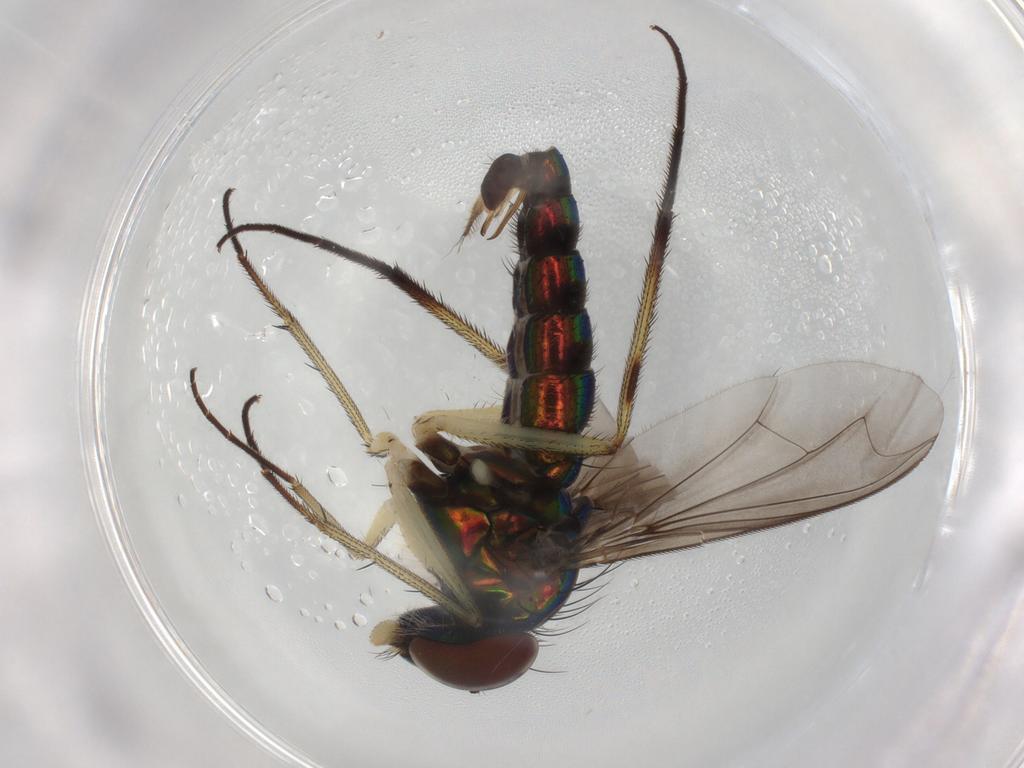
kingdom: Animalia
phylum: Arthropoda
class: Insecta
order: Diptera
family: Dolichopodidae
